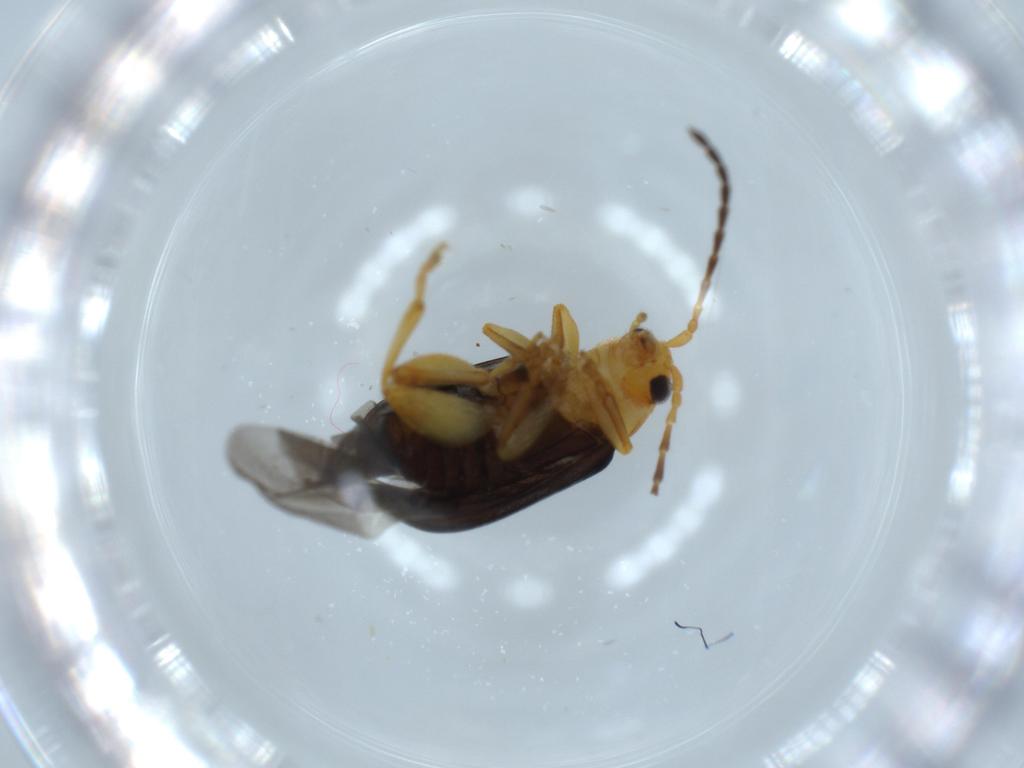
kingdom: Animalia
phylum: Arthropoda
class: Insecta
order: Coleoptera
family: Chrysomelidae
